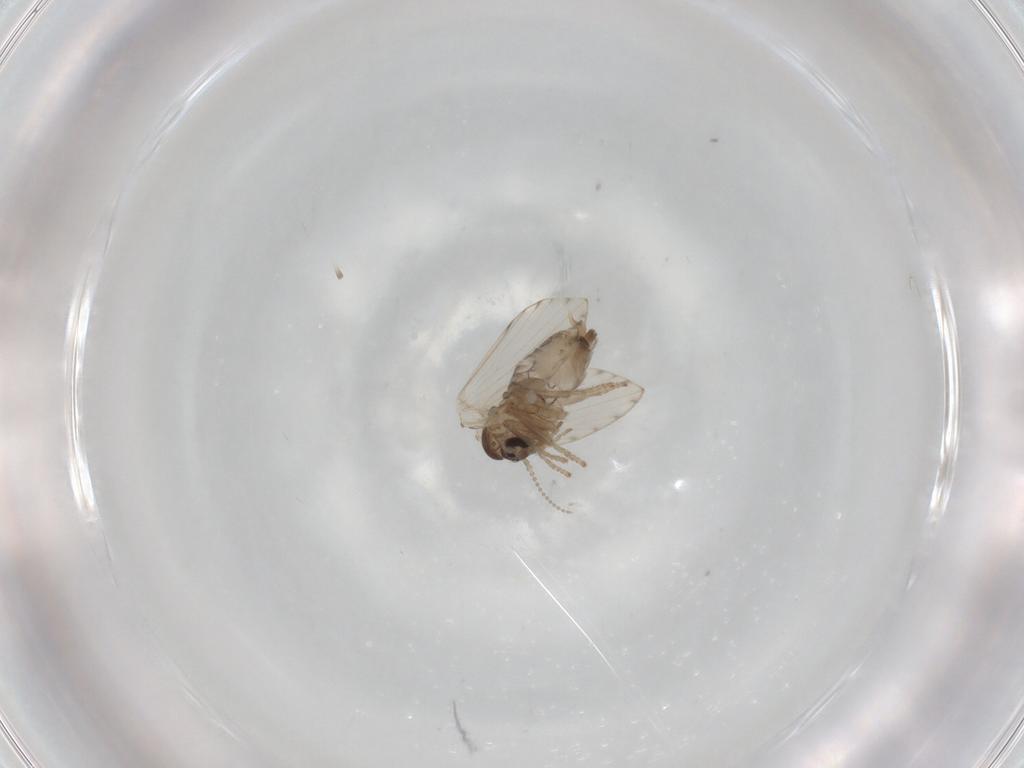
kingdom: Animalia
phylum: Arthropoda
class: Insecta
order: Diptera
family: Psychodidae
